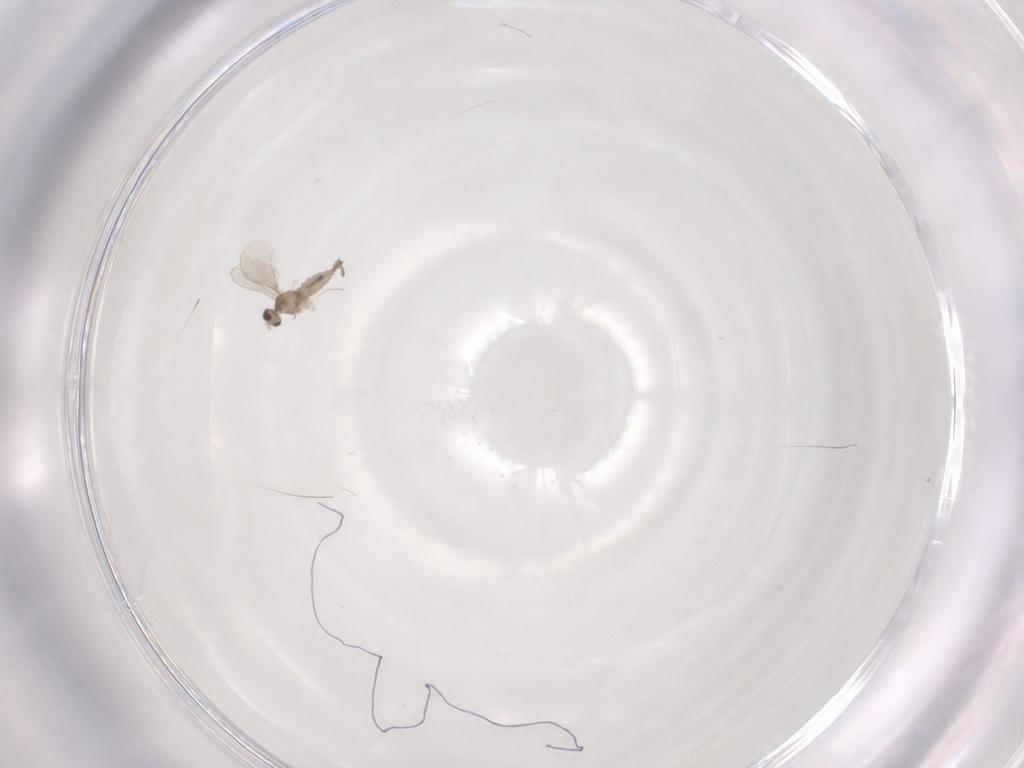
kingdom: Animalia
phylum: Arthropoda
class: Insecta
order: Diptera
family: Cecidomyiidae
